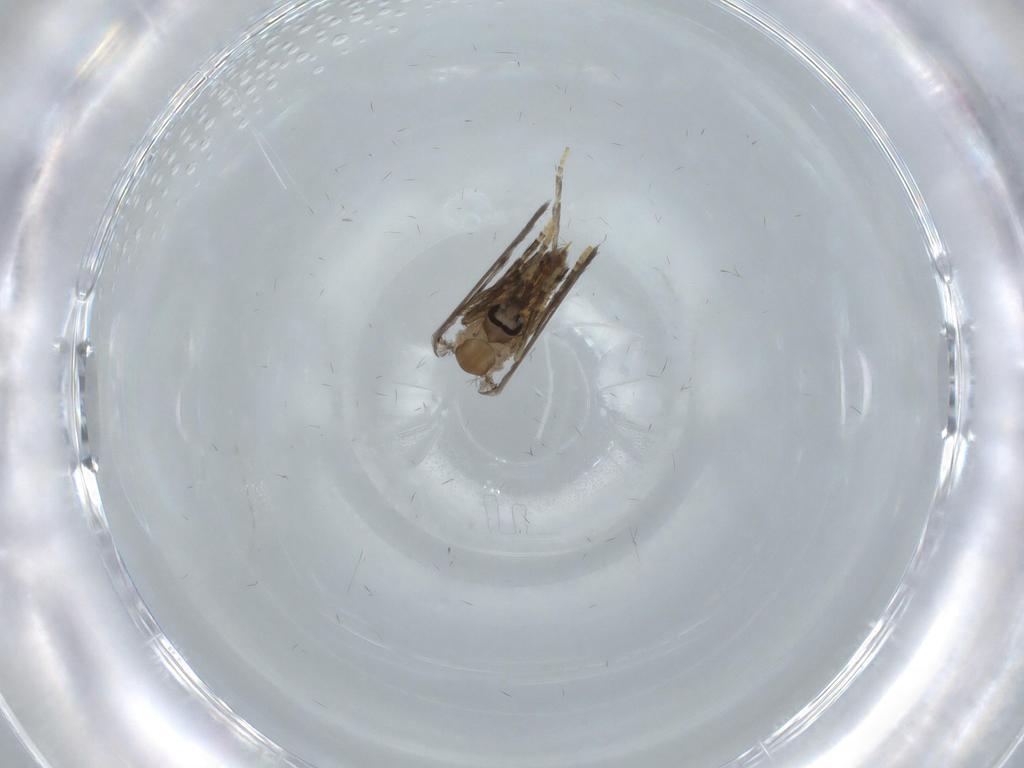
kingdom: Animalia
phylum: Arthropoda
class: Insecta
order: Diptera
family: Psychodidae
